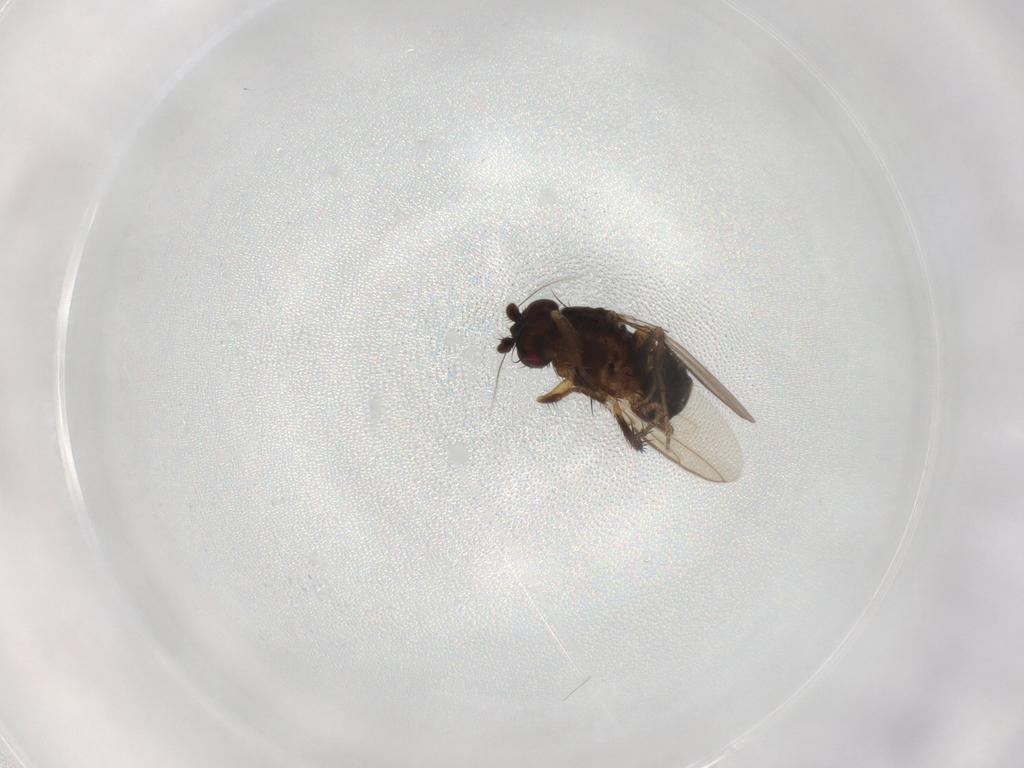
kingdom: Animalia
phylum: Arthropoda
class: Insecta
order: Diptera
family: Sphaeroceridae
